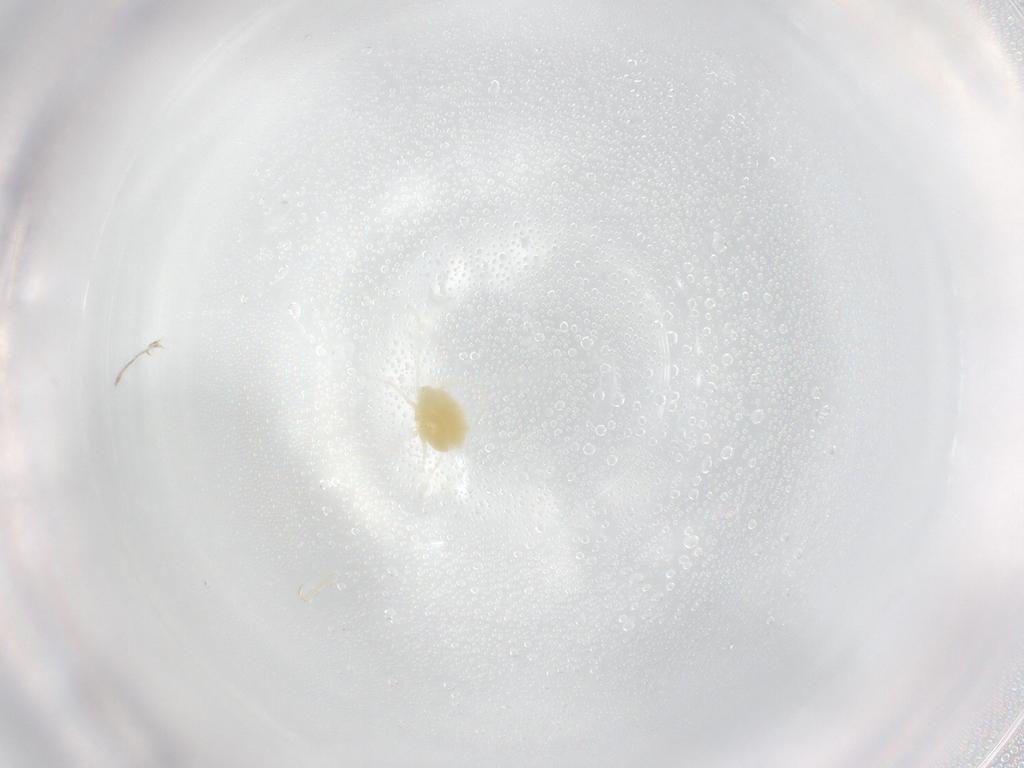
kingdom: Animalia
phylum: Arthropoda
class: Arachnida
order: Trombidiformes
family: Tetranychidae
